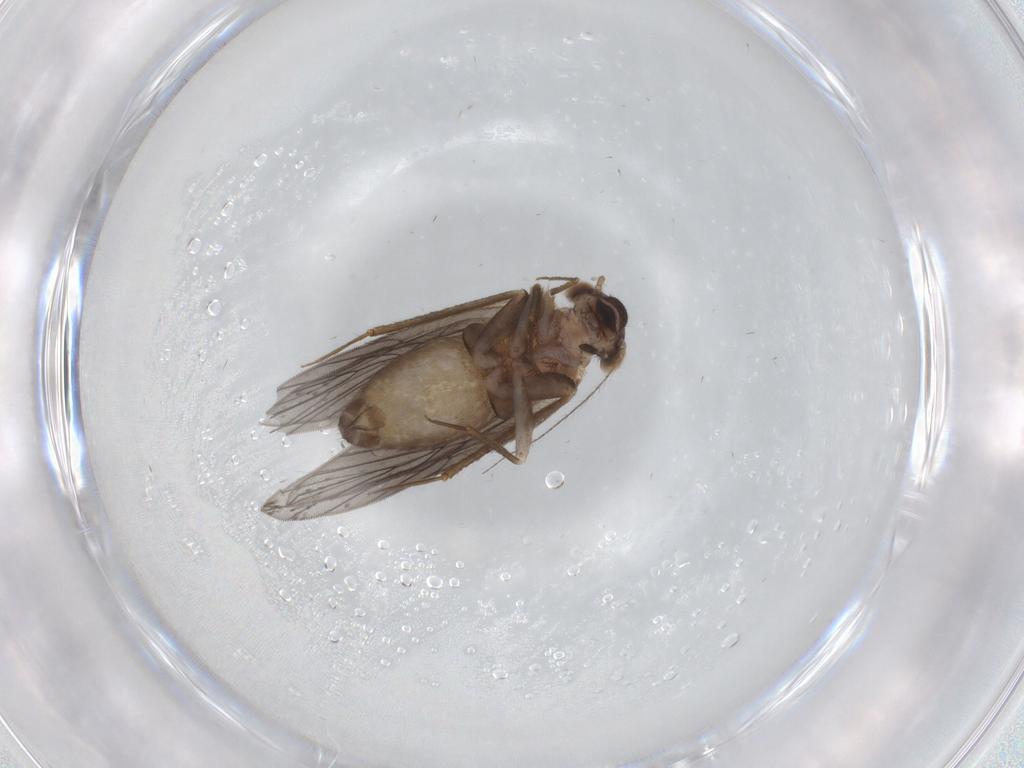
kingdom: Animalia
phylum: Arthropoda
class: Insecta
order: Psocodea
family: Lepidopsocidae
